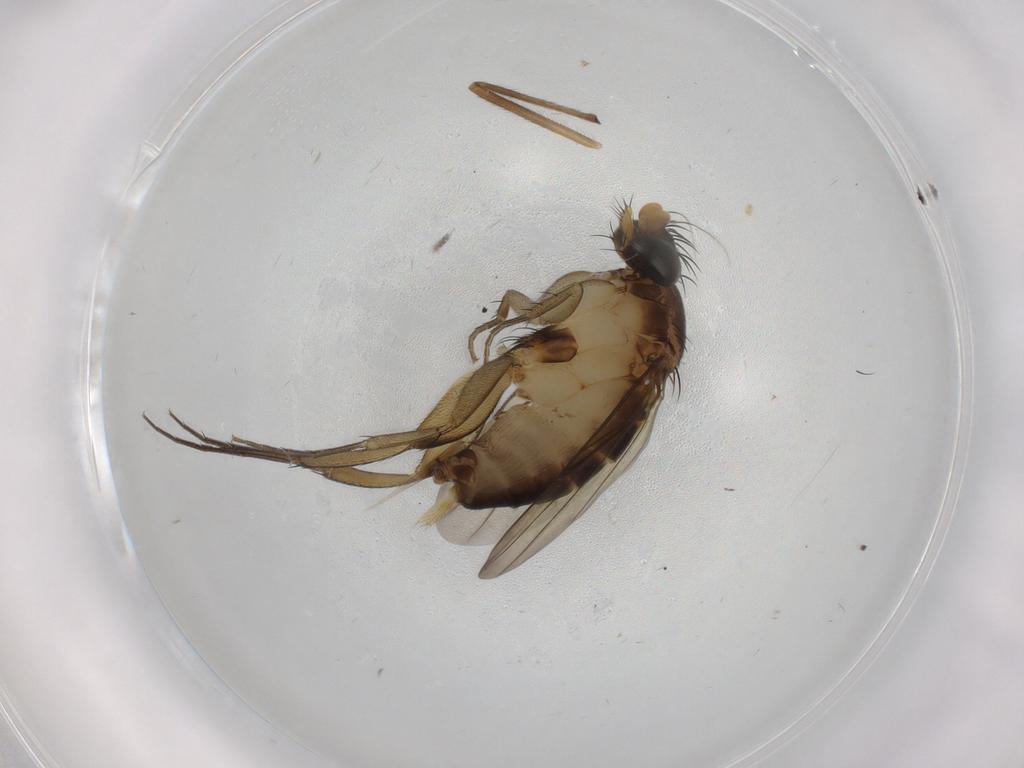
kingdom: Animalia
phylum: Arthropoda
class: Insecta
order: Diptera
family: Phoridae
